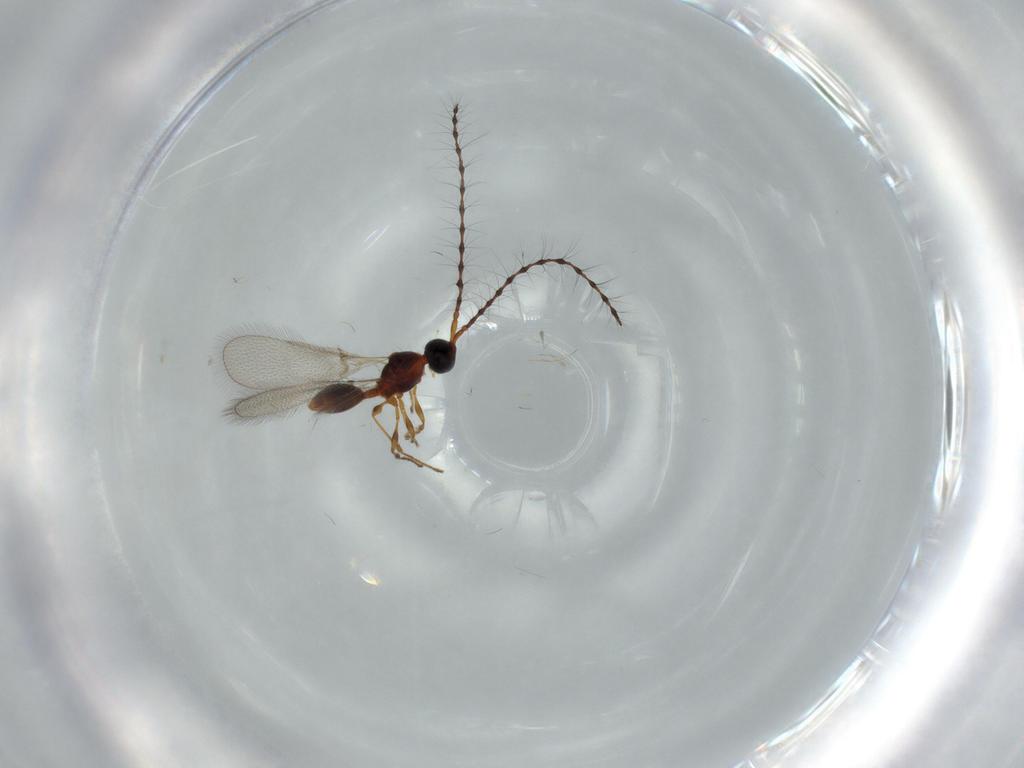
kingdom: Animalia
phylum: Arthropoda
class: Insecta
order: Hymenoptera
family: Diapriidae
